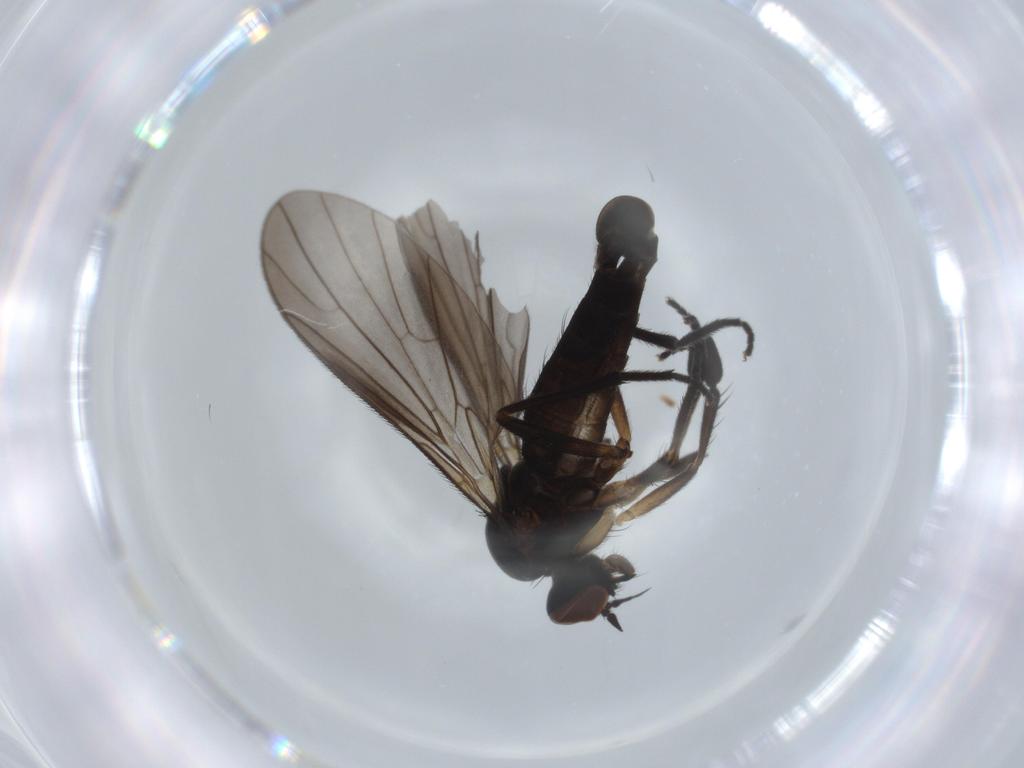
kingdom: Animalia
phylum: Arthropoda
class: Insecta
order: Diptera
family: Empididae
